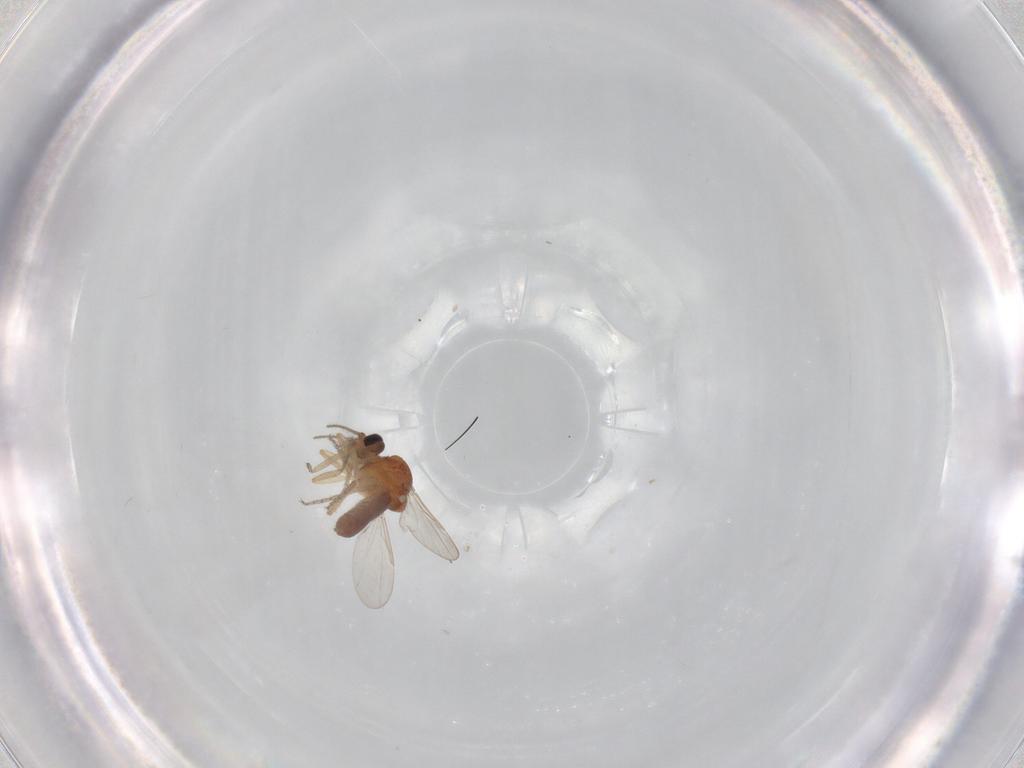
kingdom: Animalia
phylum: Arthropoda
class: Insecta
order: Diptera
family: Ceratopogonidae
